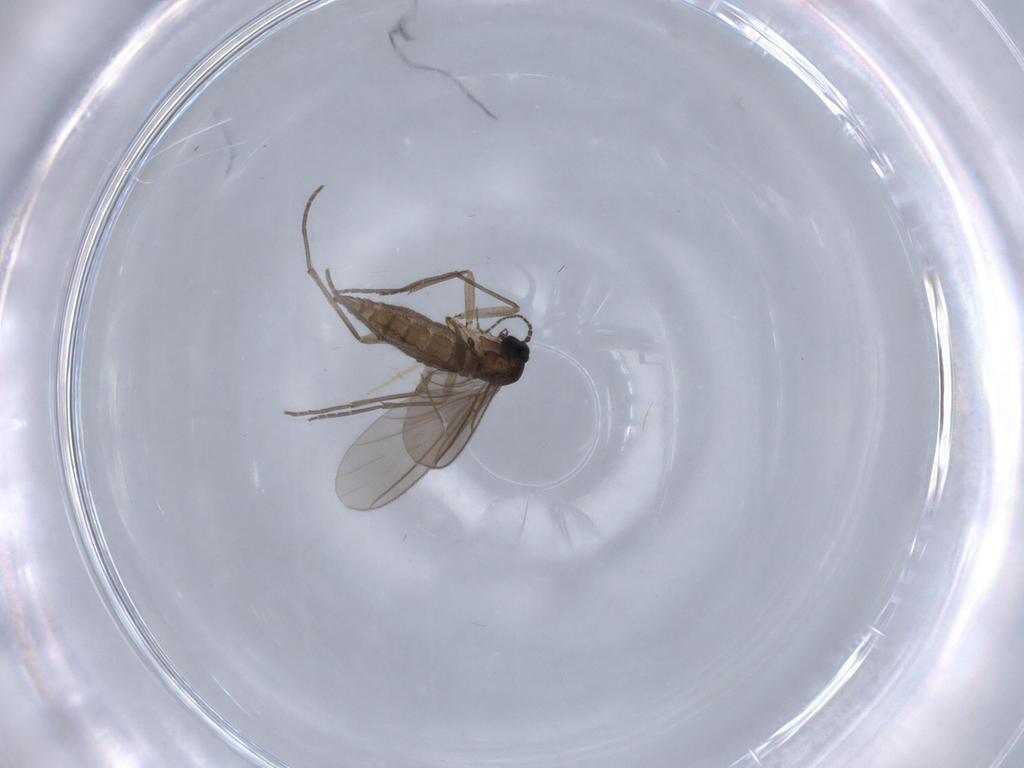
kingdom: Animalia
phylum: Arthropoda
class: Insecta
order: Diptera
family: Sciaridae
